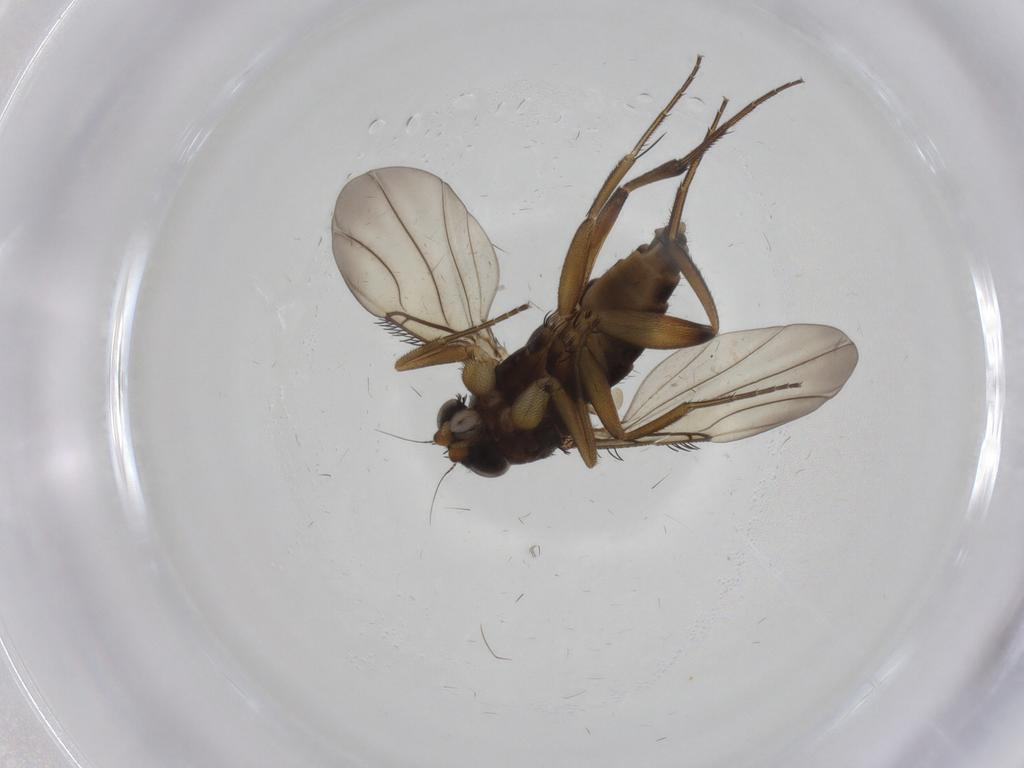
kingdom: Animalia
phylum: Arthropoda
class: Insecta
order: Diptera
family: Phoridae
